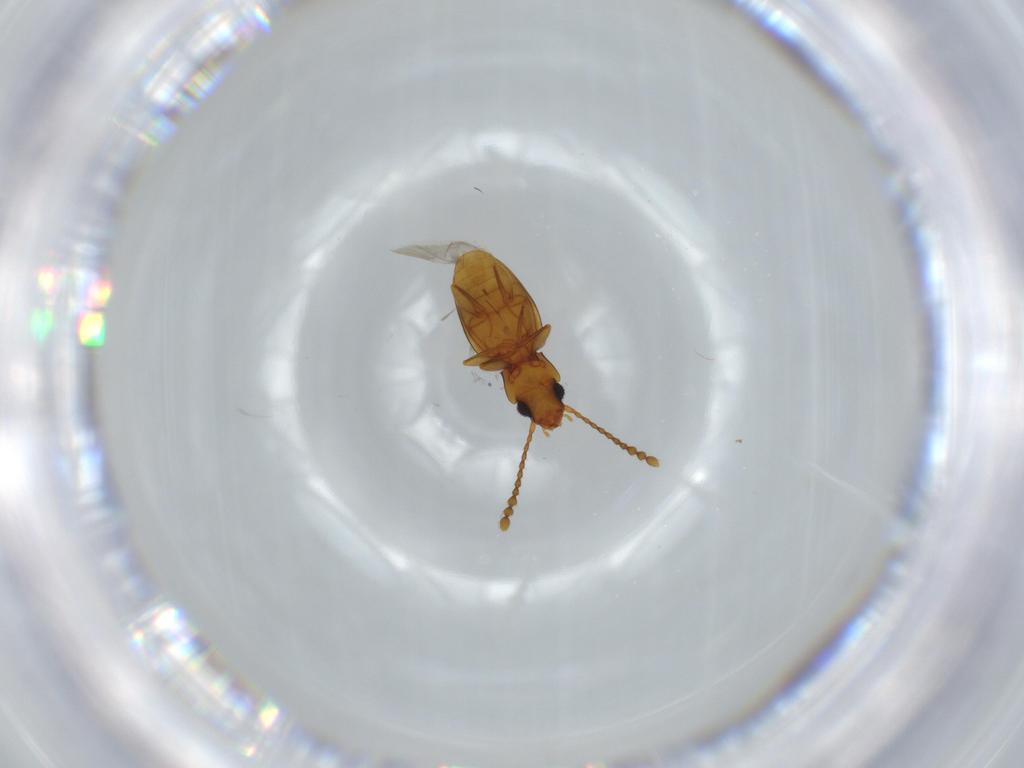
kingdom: Animalia
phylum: Arthropoda
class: Insecta
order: Coleoptera
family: Laemophloeidae
